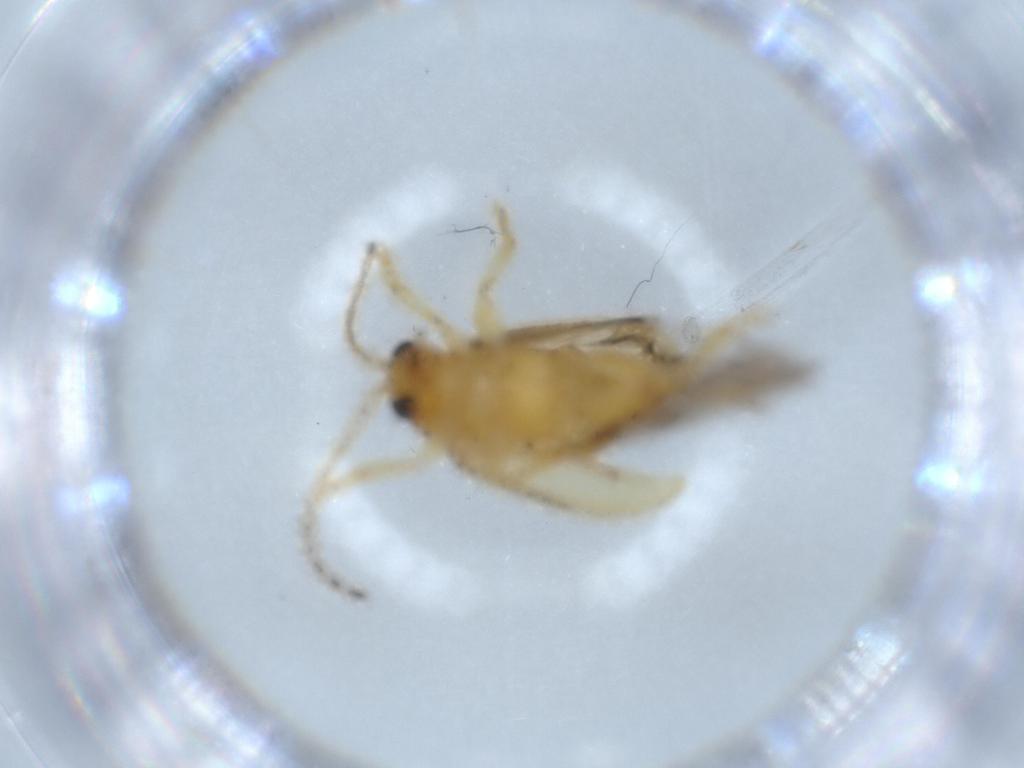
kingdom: Animalia
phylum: Arthropoda
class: Insecta
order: Coleoptera
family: Chrysomelidae
